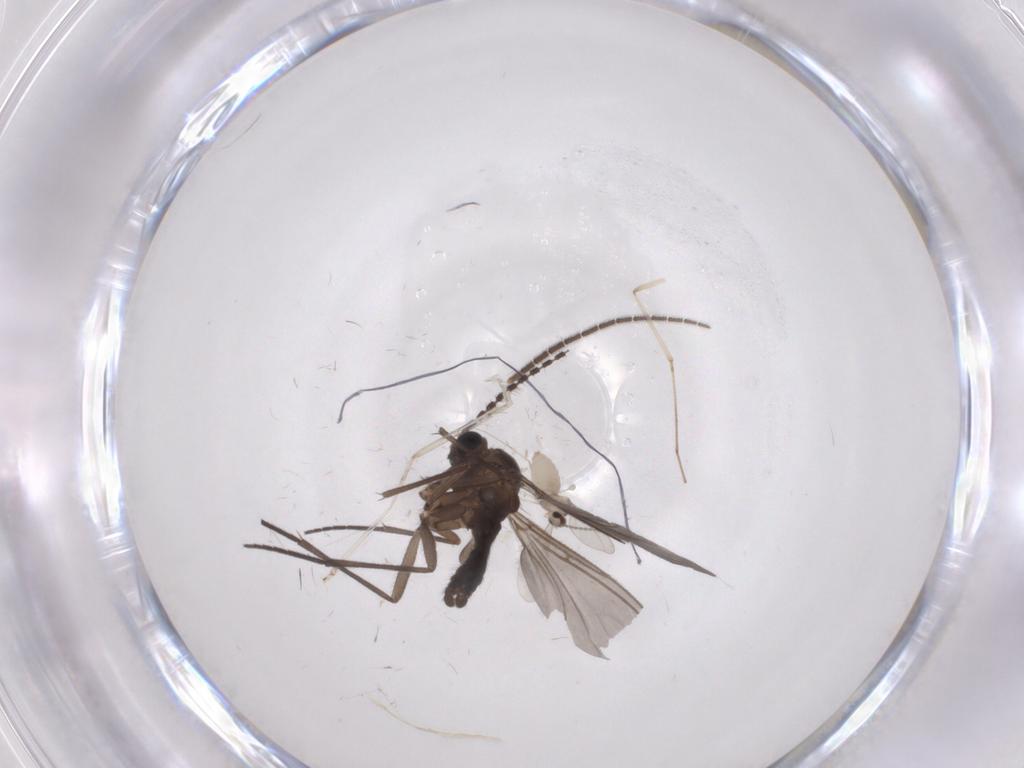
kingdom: Animalia
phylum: Arthropoda
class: Insecta
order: Diptera
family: Sciaridae
